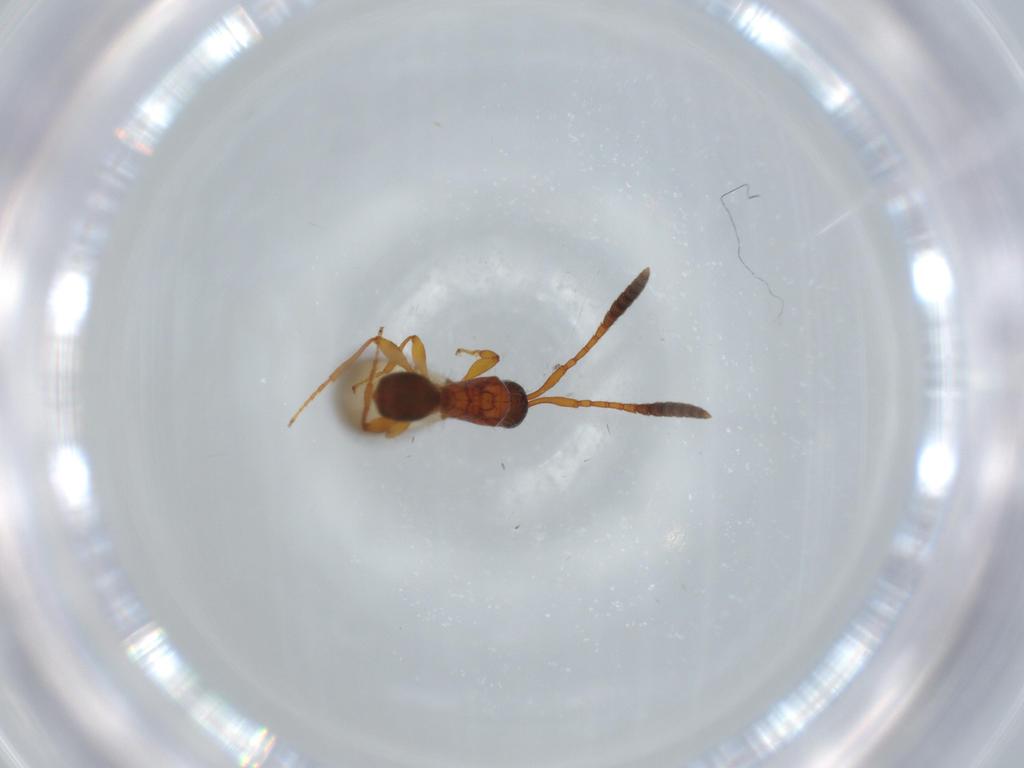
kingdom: Animalia
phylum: Arthropoda
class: Insecta
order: Hymenoptera
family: Diapriidae
